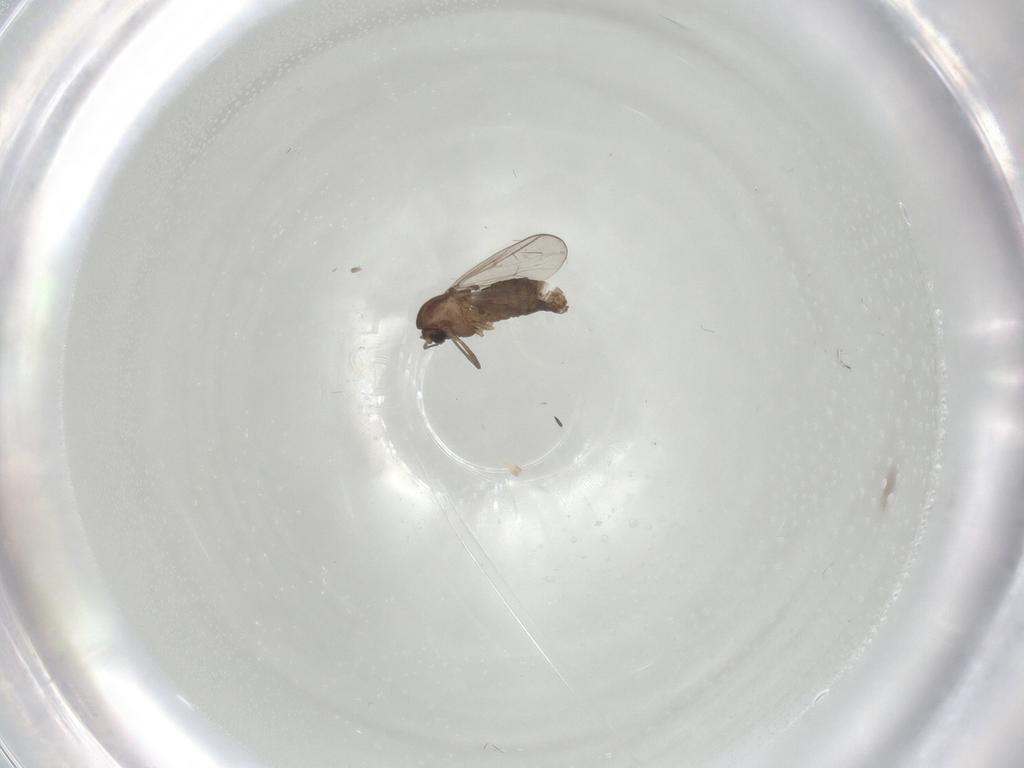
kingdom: Animalia
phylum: Arthropoda
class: Insecta
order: Diptera
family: Chironomidae
